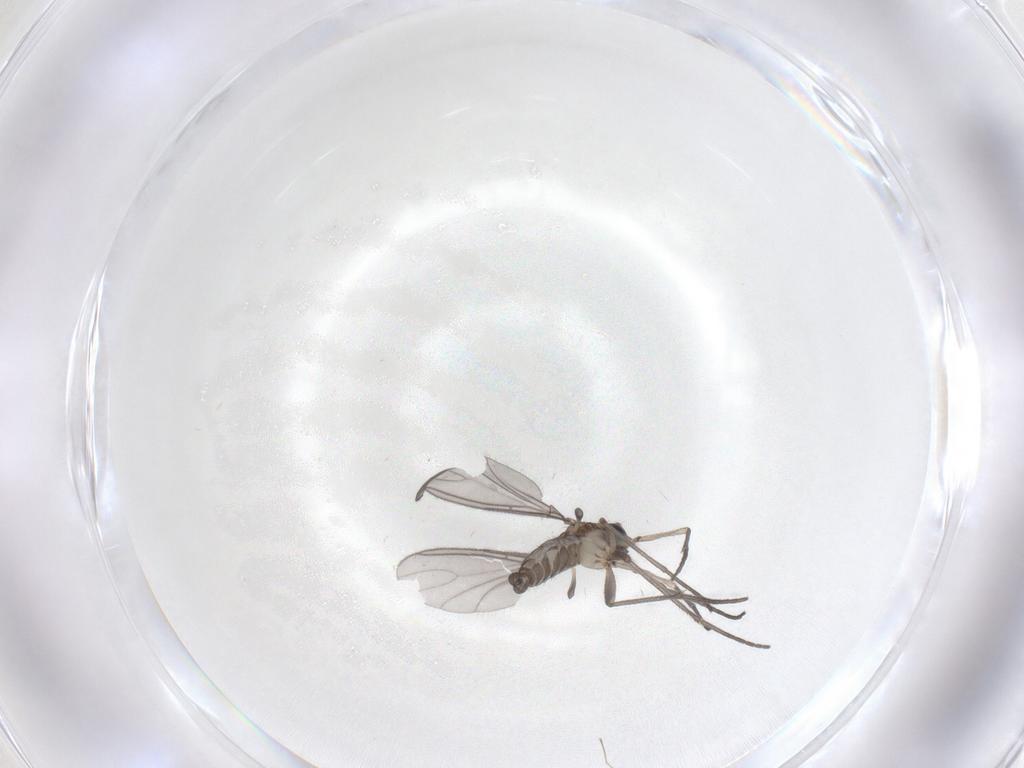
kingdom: Animalia
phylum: Arthropoda
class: Insecta
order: Diptera
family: Sciaridae
